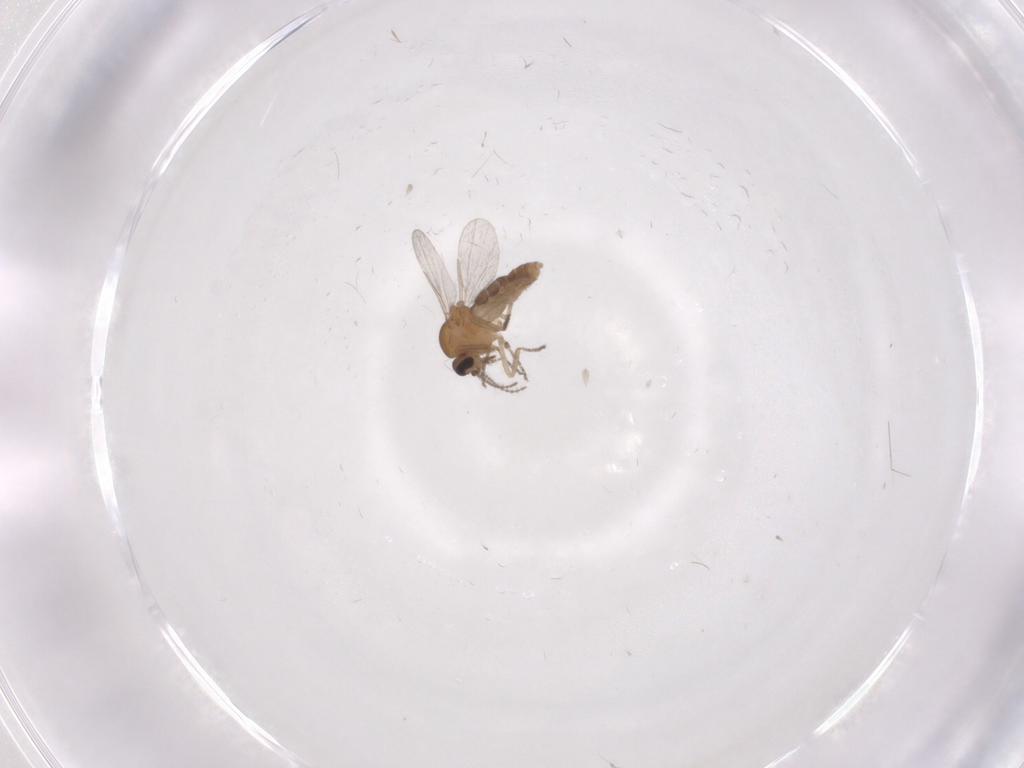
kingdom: Animalia
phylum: Arthropoda
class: Insecta
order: Diptera
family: Ceratopogonidae
